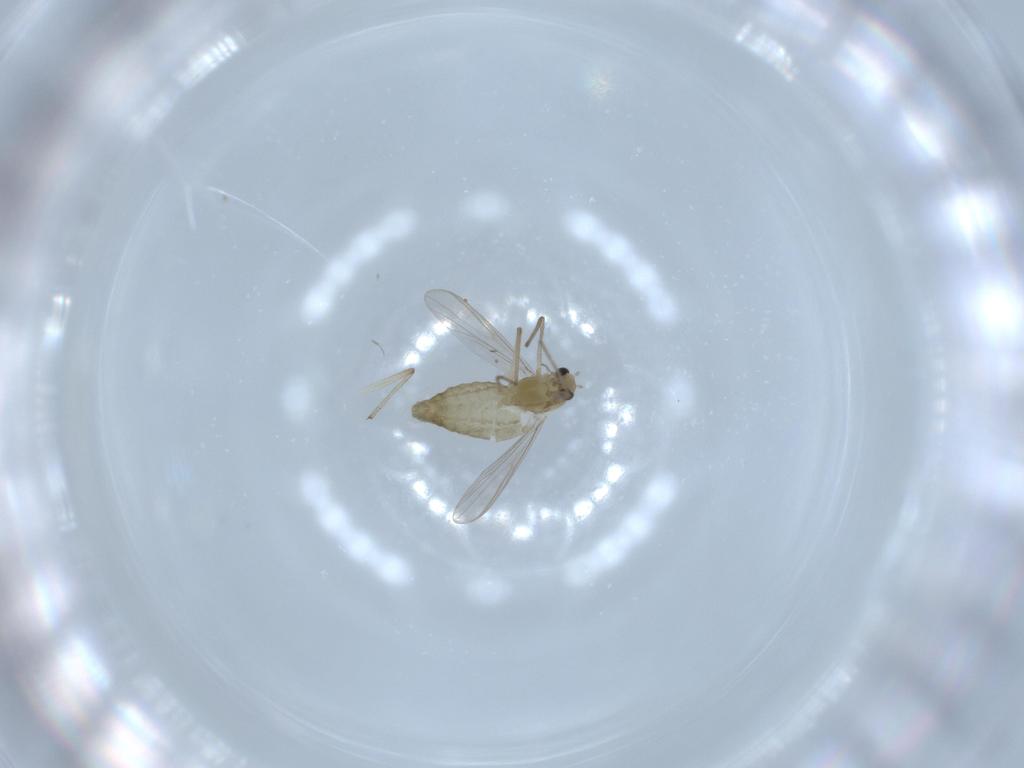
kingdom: Animalia
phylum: Arthropoda
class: Insecta
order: Diptera
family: Chironomidae
